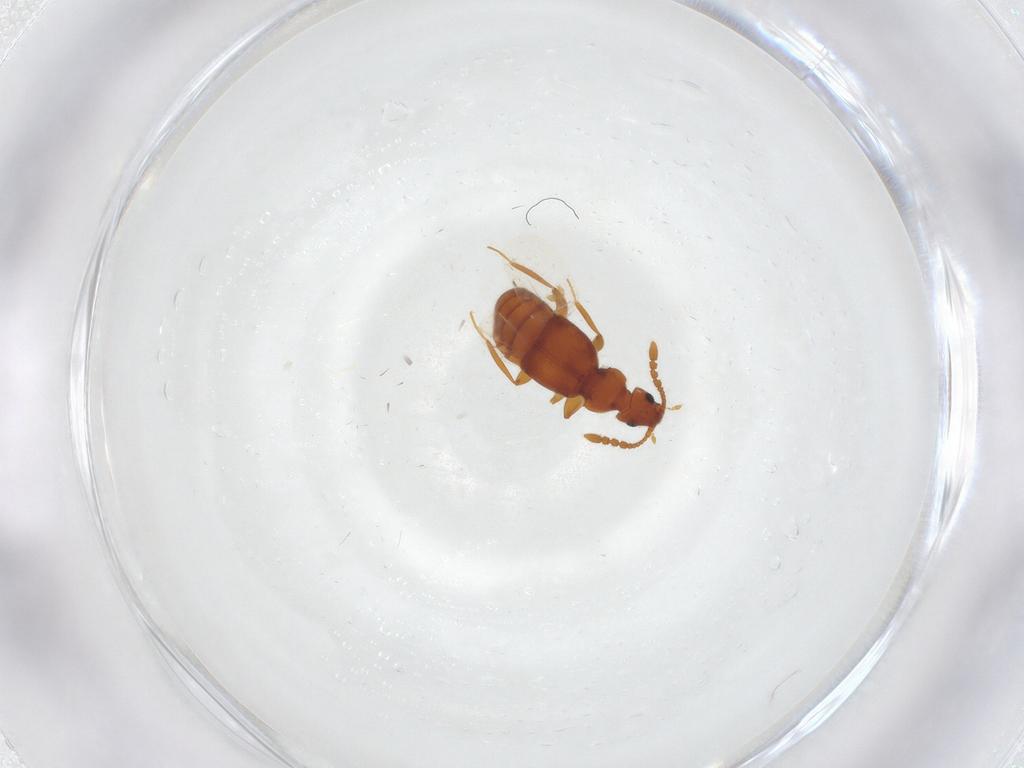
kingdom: Animalia
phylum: Arthropoda
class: Insecta
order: Coleoptera
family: Elateridae
